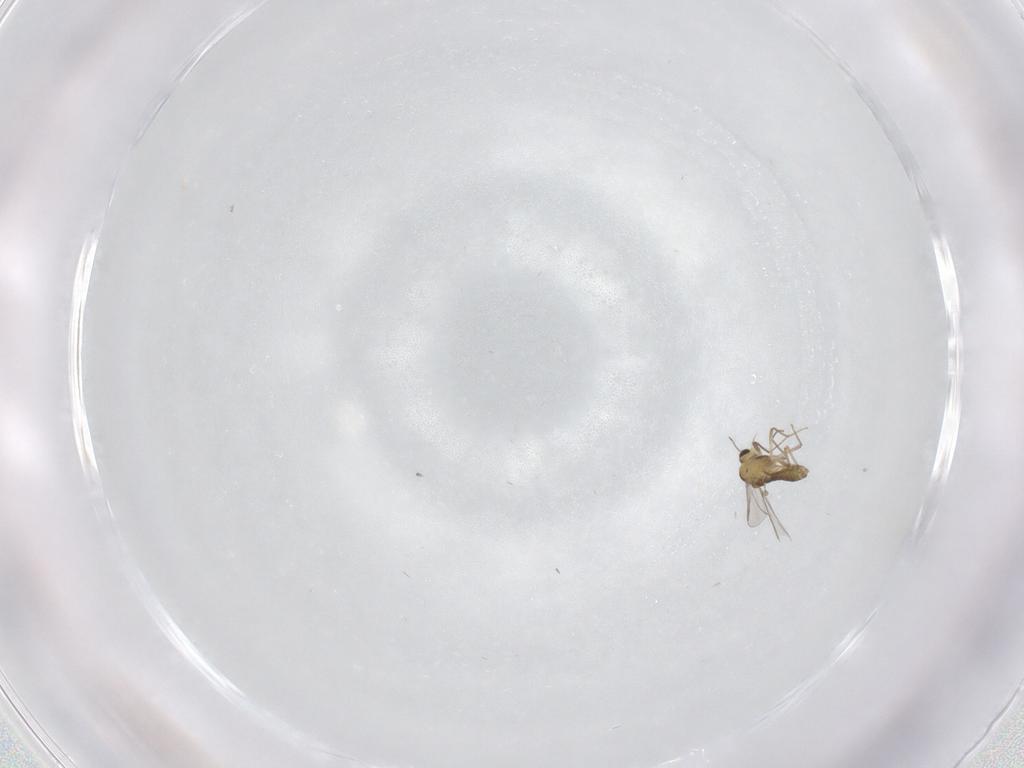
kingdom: Animalia
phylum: Arthropoda
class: Insecta
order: Diptera
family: Chironomidae
